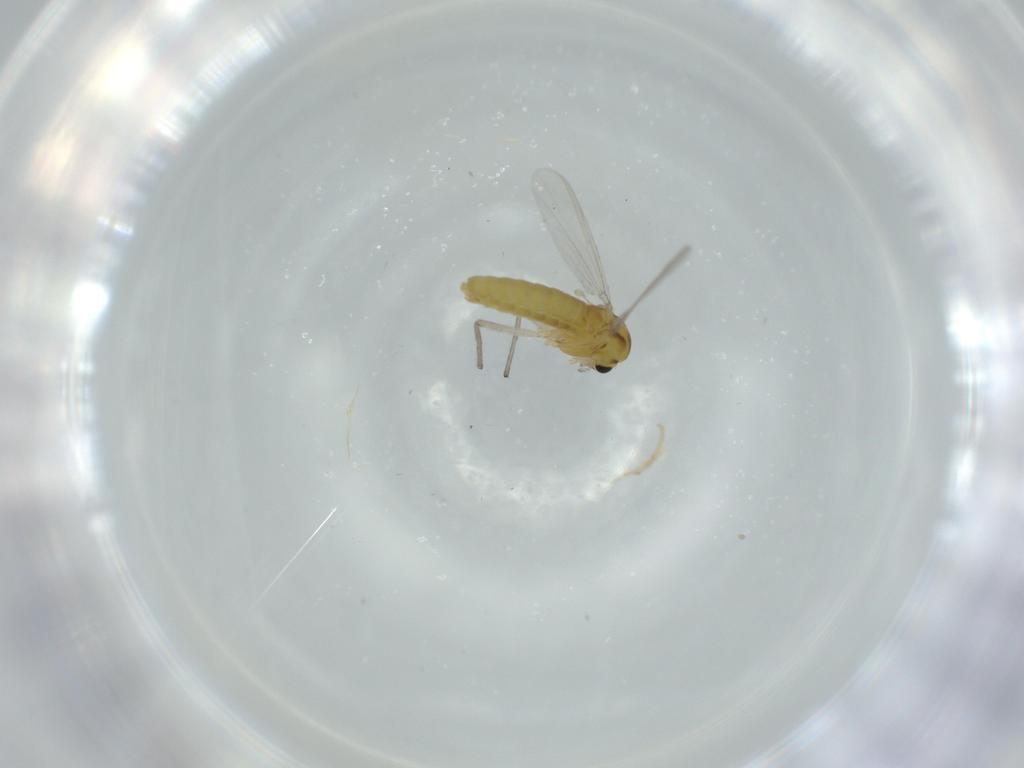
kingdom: Animalia
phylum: Arthropoda
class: Insecta
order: Diptera
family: Chironomidae
